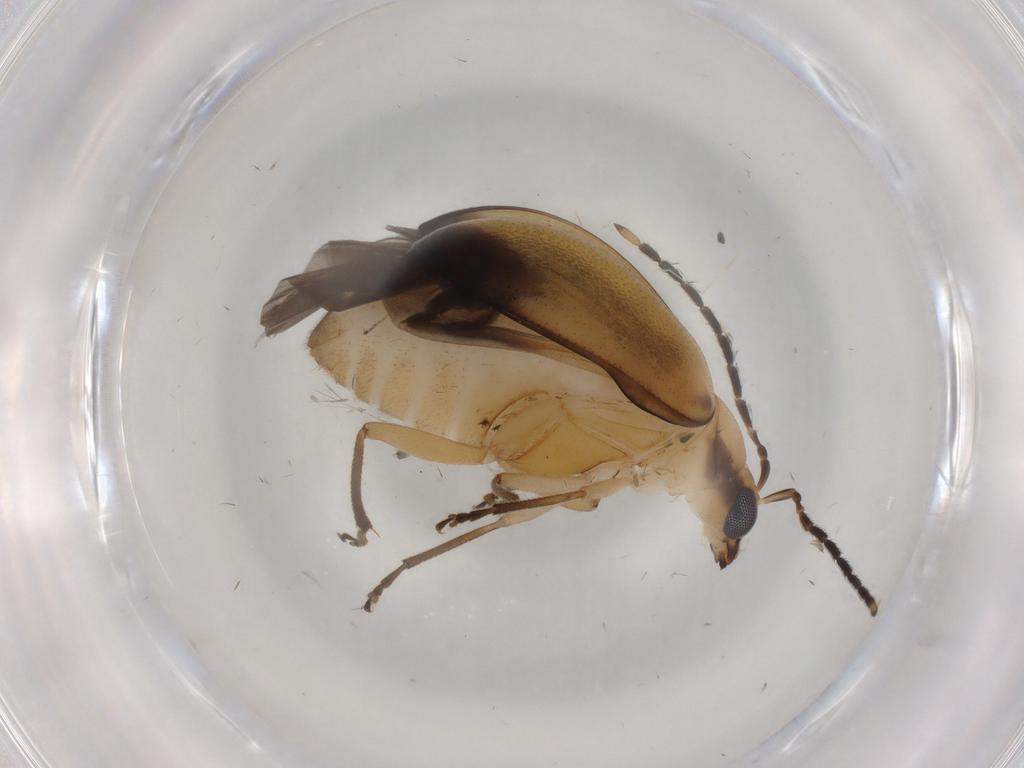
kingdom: Animalia
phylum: Arthropoda
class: Insecta
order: Coleoptera
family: Chrysomelidae
